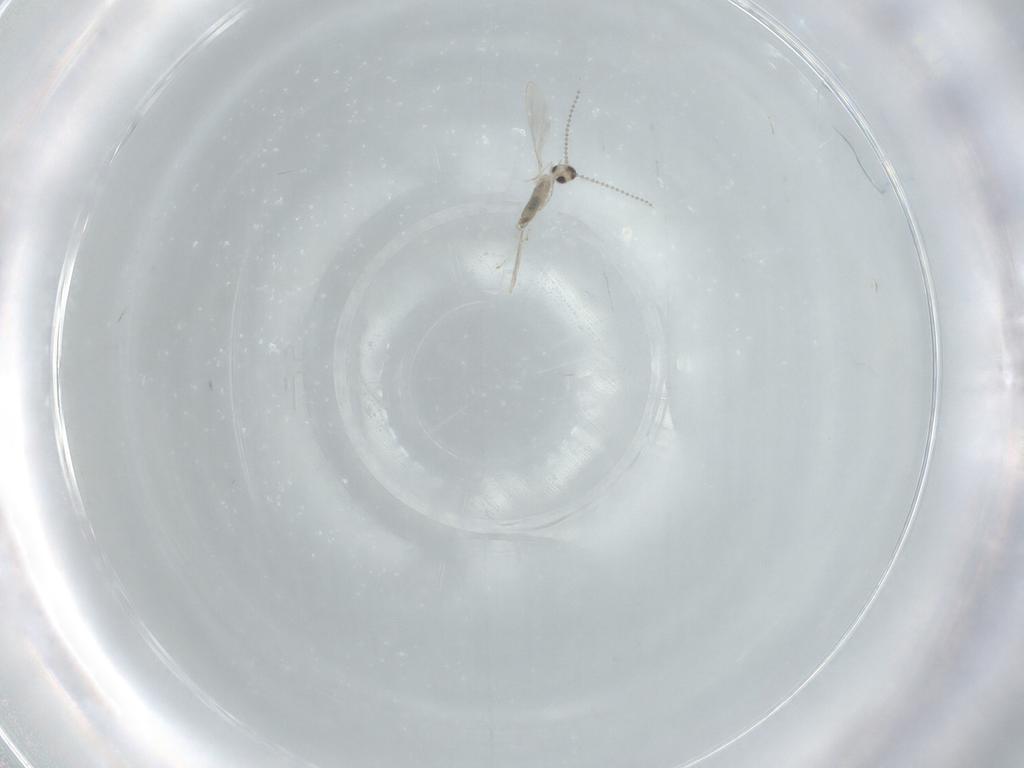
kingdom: Animalia
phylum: Arthropoda
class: Insecta
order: Diptera
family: Cecidomyiidae
